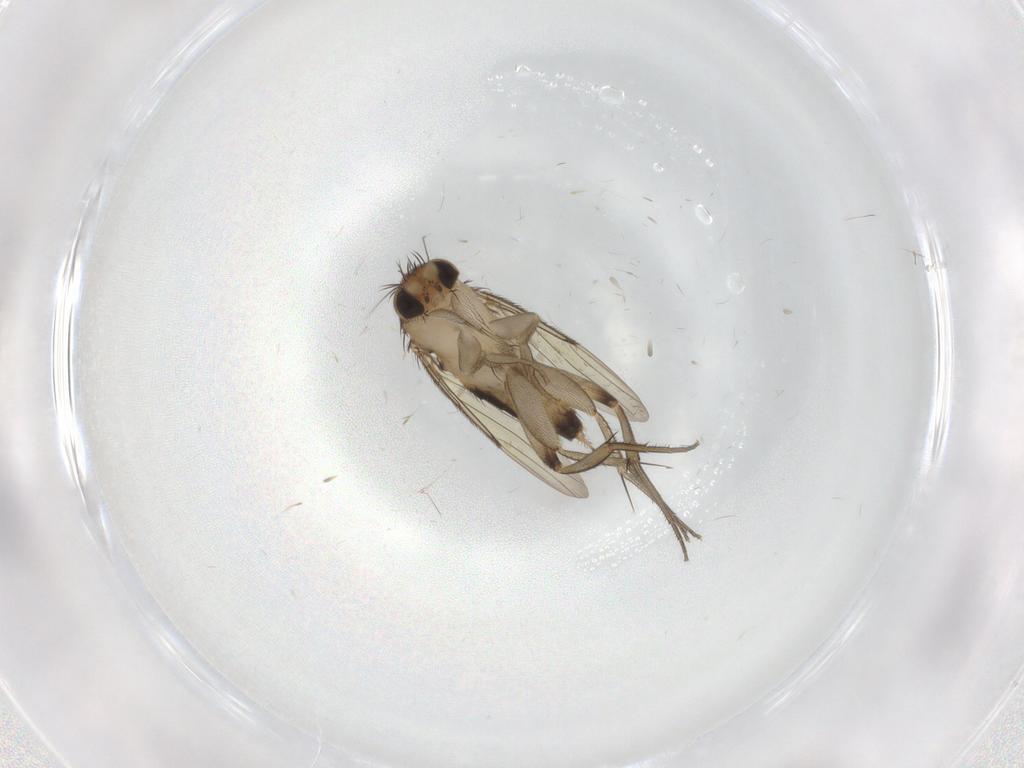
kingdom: Animalia
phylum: Arthropoda
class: Insecta
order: Diptera
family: Phoridae
